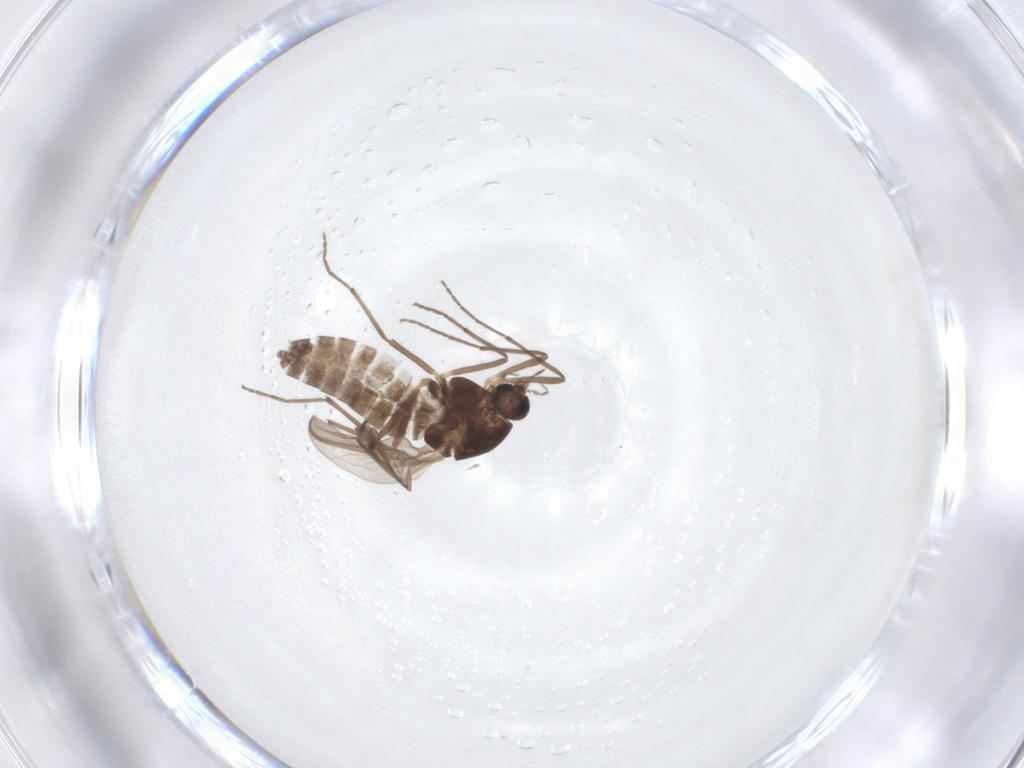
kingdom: Animalia
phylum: Arthropoda
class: Insecta
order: Diptera
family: Chironomidae
